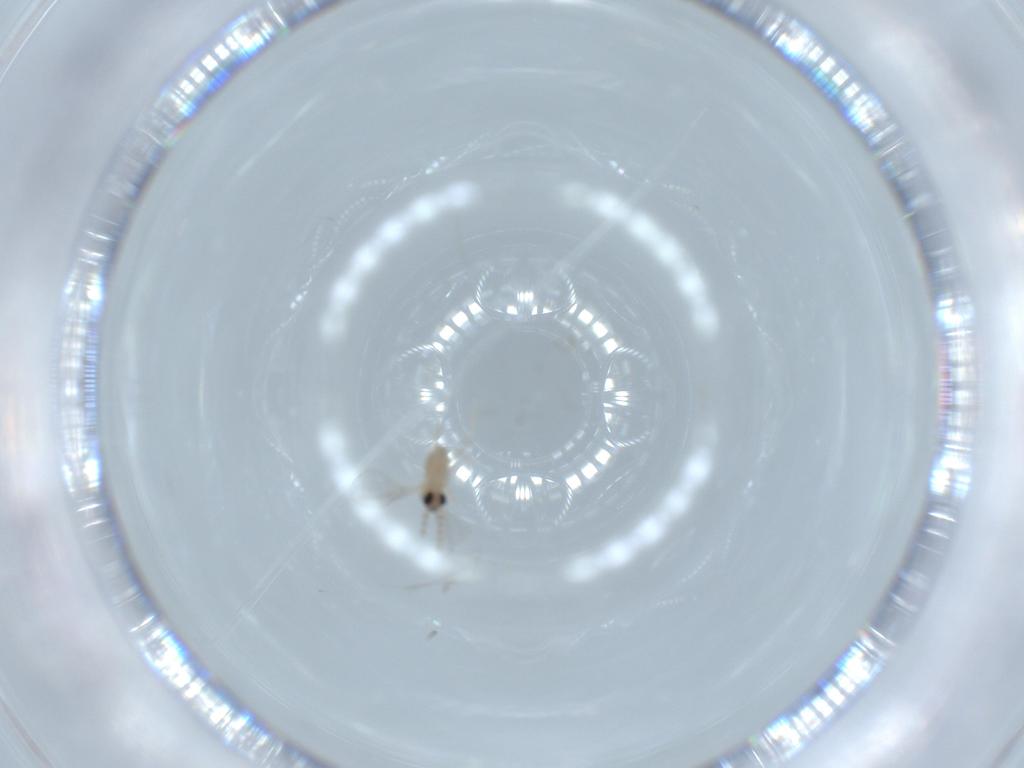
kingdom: Animalia
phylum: Arthropoda
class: Insecta
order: Diptera
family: Cecidomyiidae
